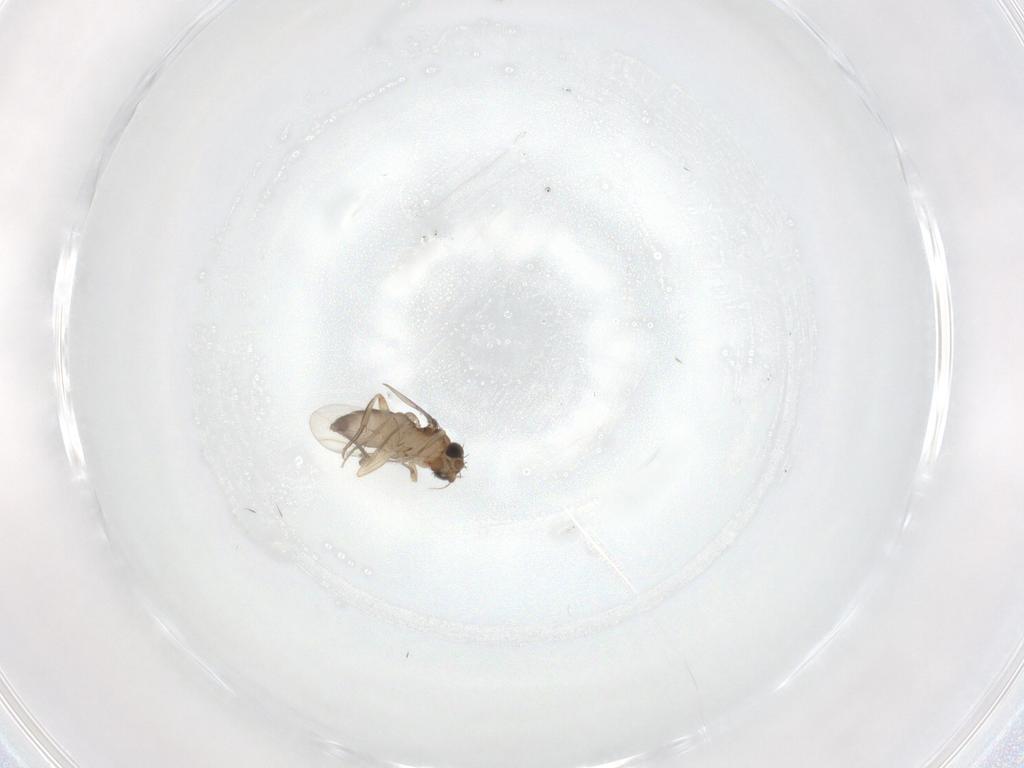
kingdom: Animalia
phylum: Arthropoda
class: Insecta
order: Diptera
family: Phoridae
